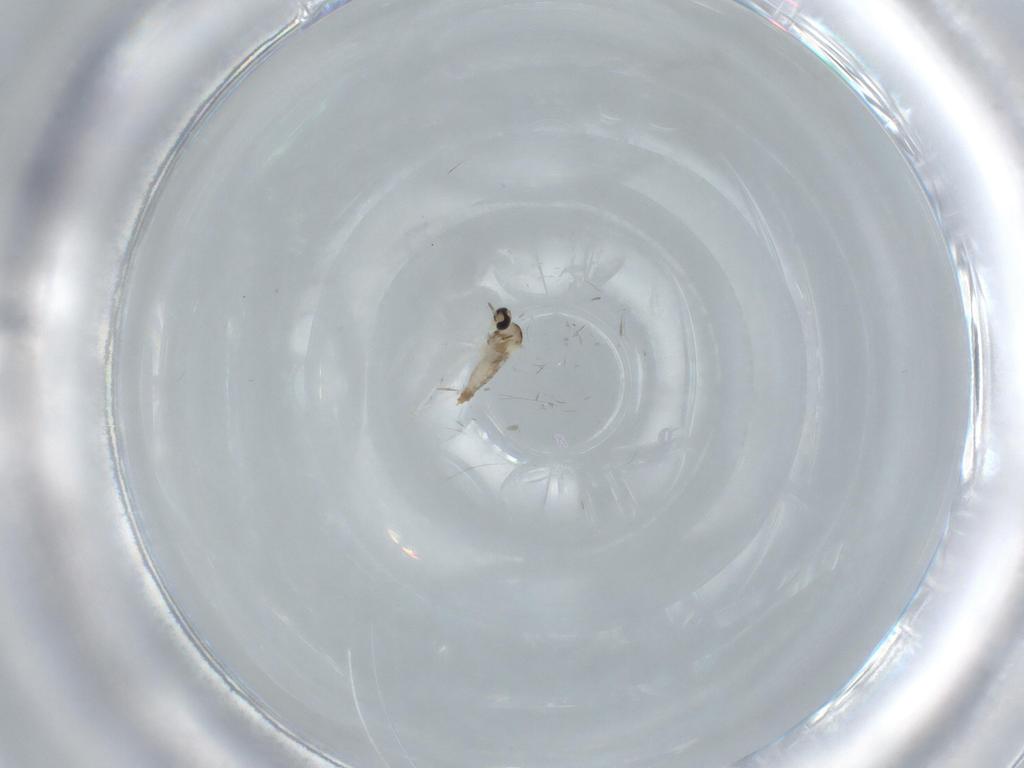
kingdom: Animalia
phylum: Arthropoda
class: Insecta
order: Diptera
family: Cecidomyiidae
